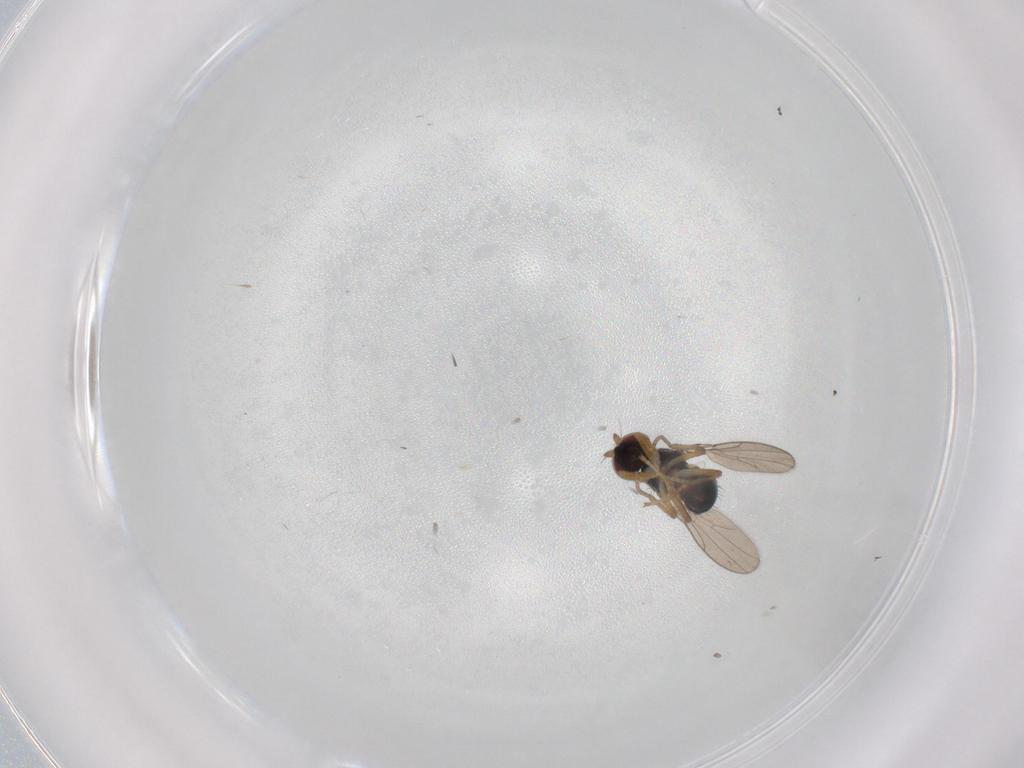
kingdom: Animalia
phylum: Arthropoda
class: Insecta
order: Diptera
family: Ephydridae
